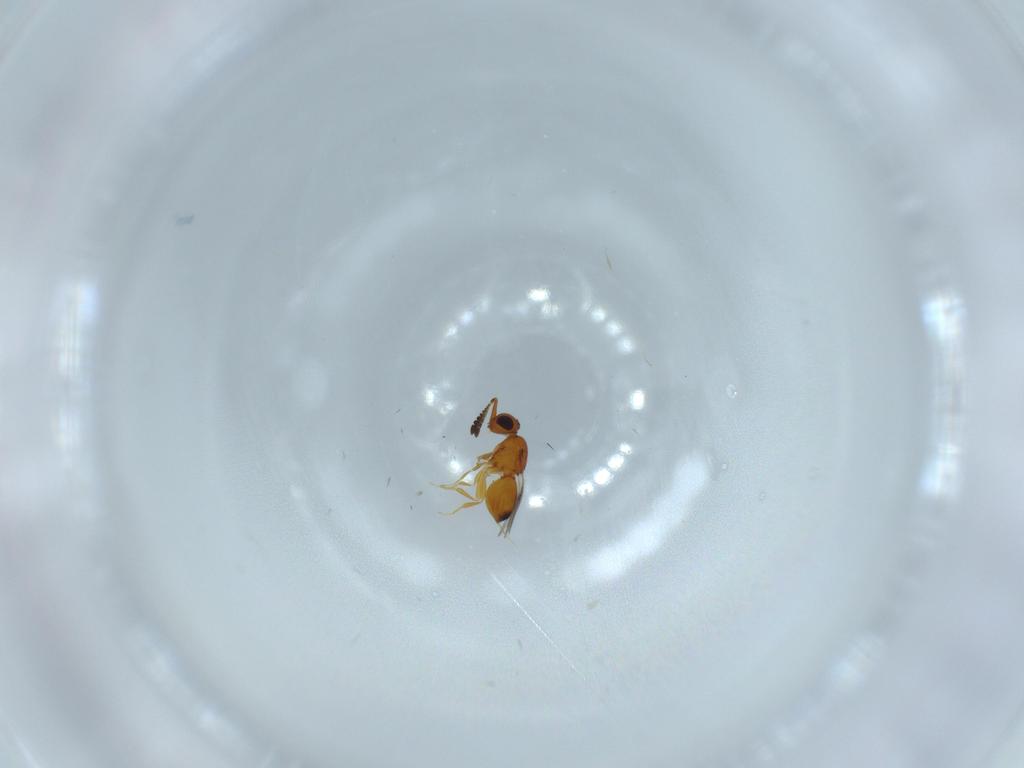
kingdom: Animalia
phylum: Arthropoda
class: Insecta
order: Hymenoptera
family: Ceraphronidae
